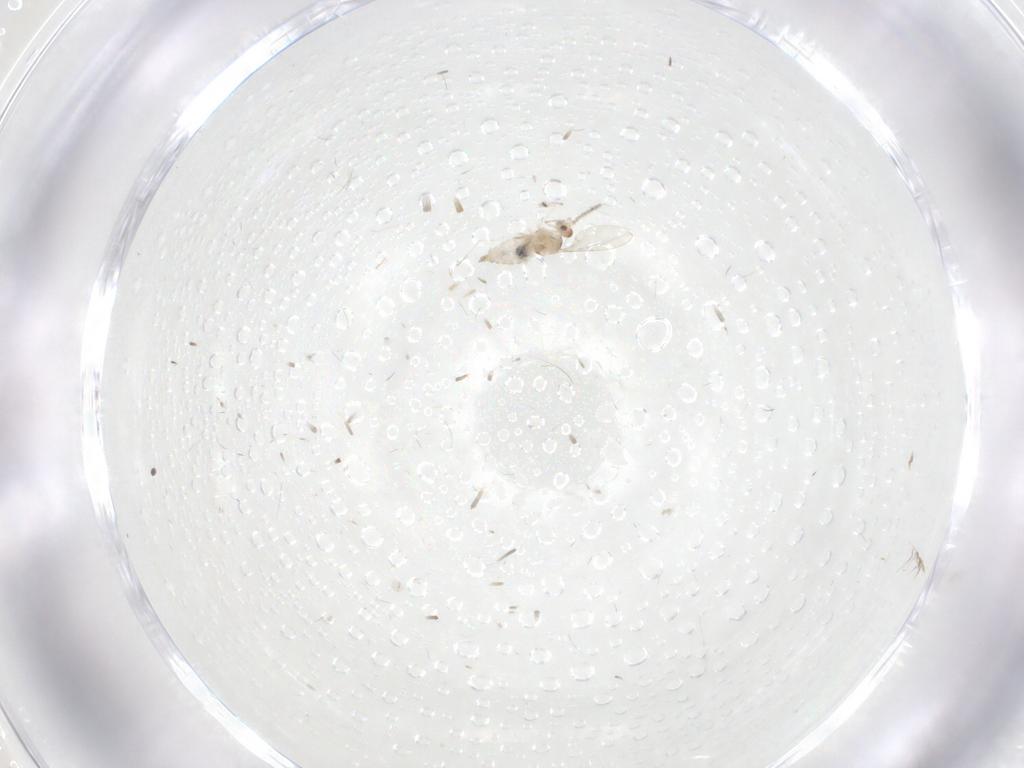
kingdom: Animalia
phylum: Arthropoda
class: Insecta
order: Diptera
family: Cecidomyiidae
